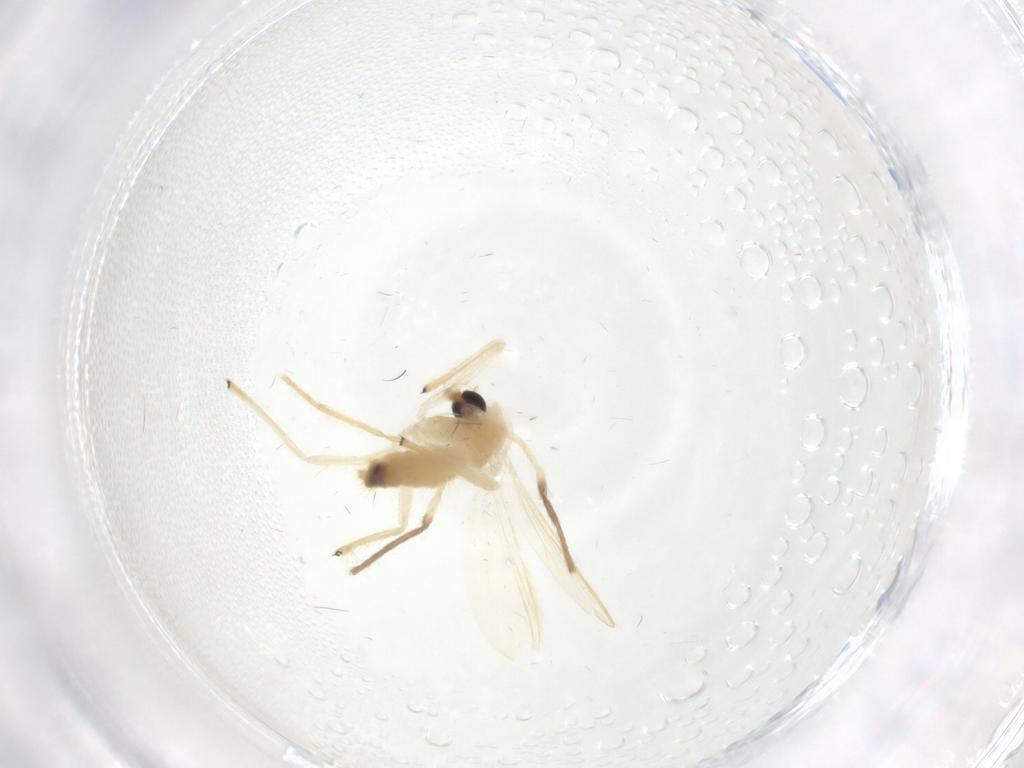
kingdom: Animalia
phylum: Arthropoda
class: Insecta
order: Diptera
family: Cecidomyiidae
